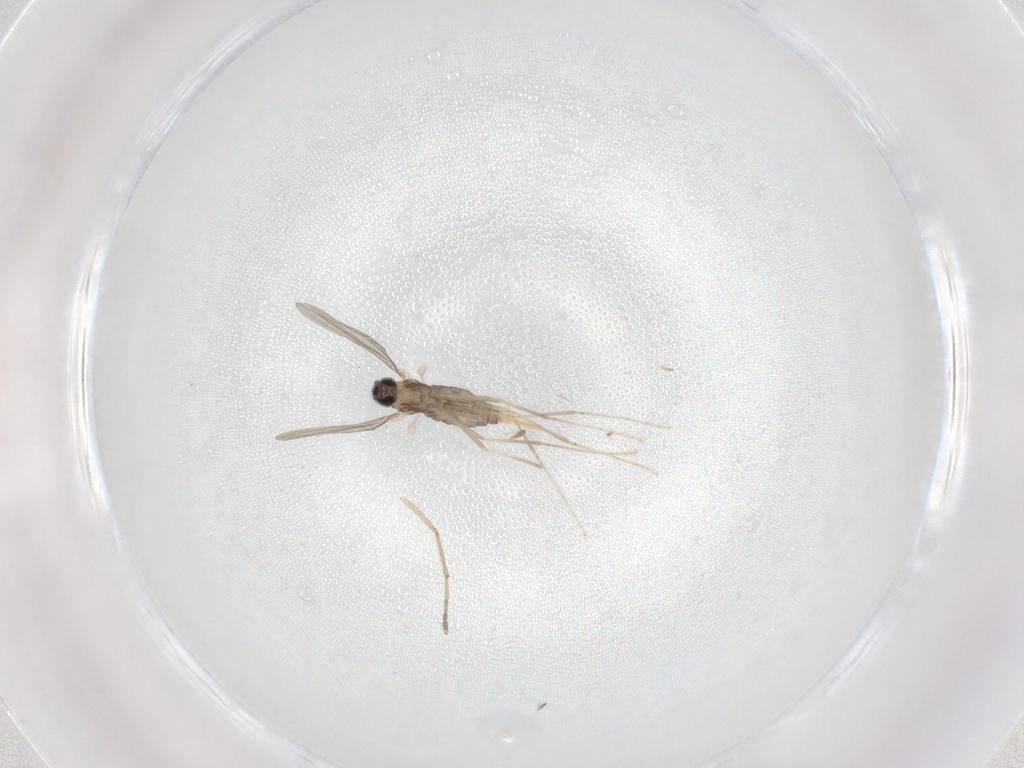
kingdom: Animalia
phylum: Arthropoda
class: Insecta
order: Diptera
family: Cecidomyiidae
